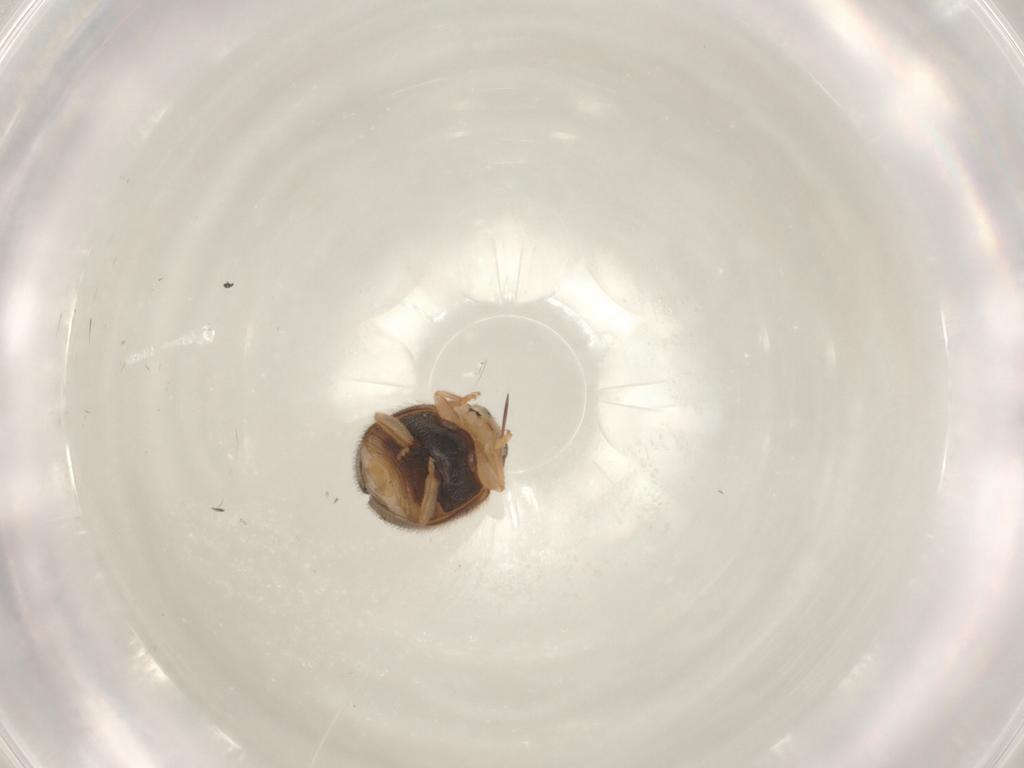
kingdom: Animalia
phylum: Arthropoda
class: Insecta
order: Coleoptera
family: Coccinellidae
